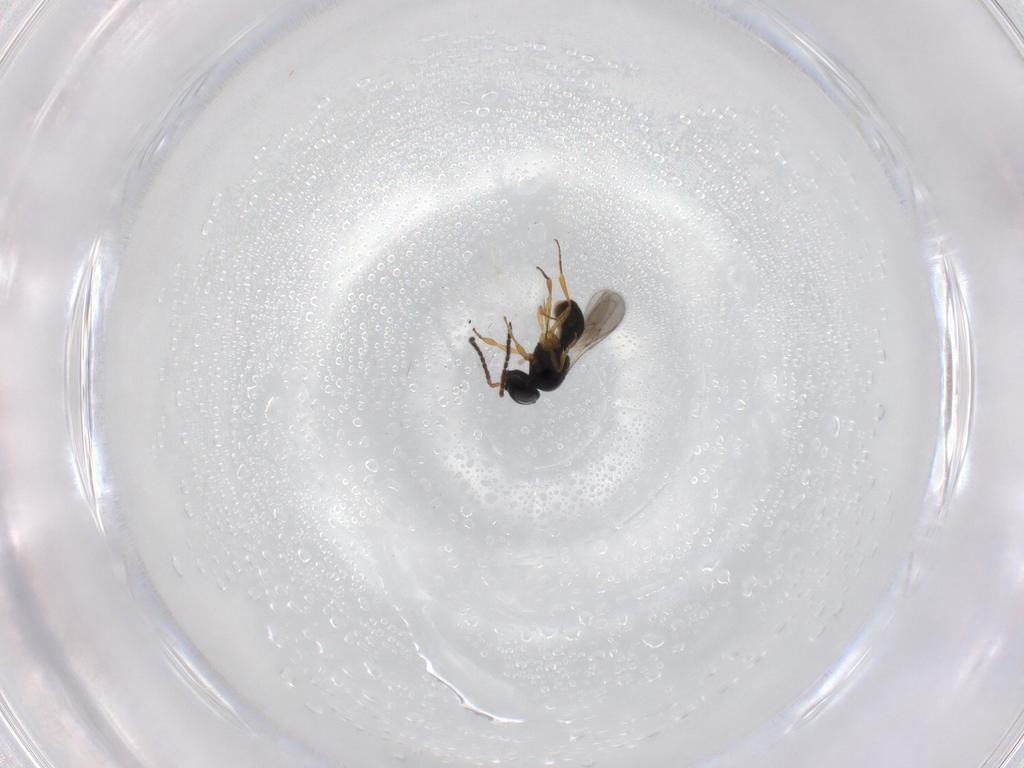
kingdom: Animalia
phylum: Arthropoda
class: Insecta
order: Hymenoptera
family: Scelionidae
